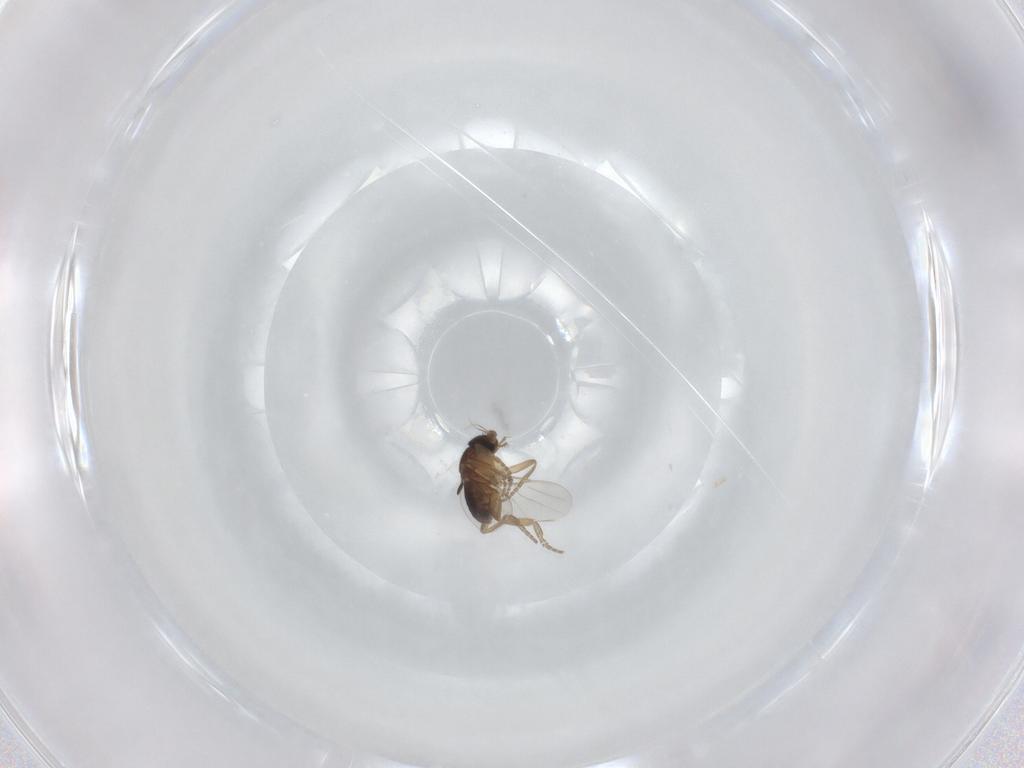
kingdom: Animalia
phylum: Arthropoda
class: Insecta
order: Diptera
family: Phoridae
